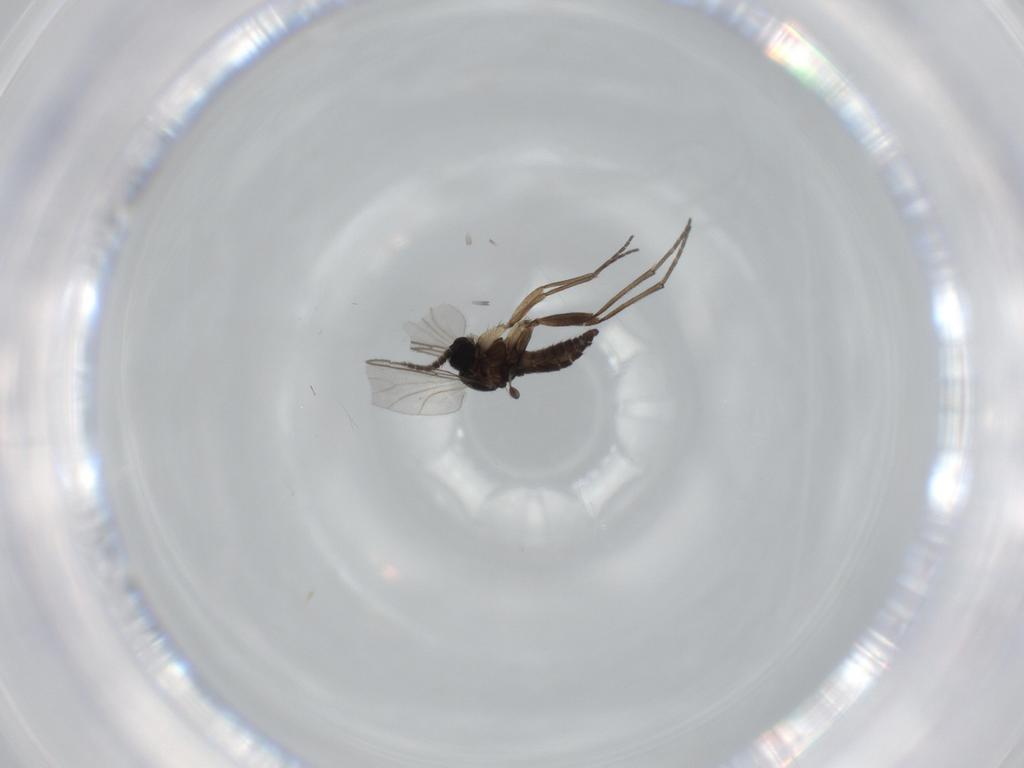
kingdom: Animalia
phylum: Arthropoda
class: Insecta
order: Diptera
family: Sciaridae
